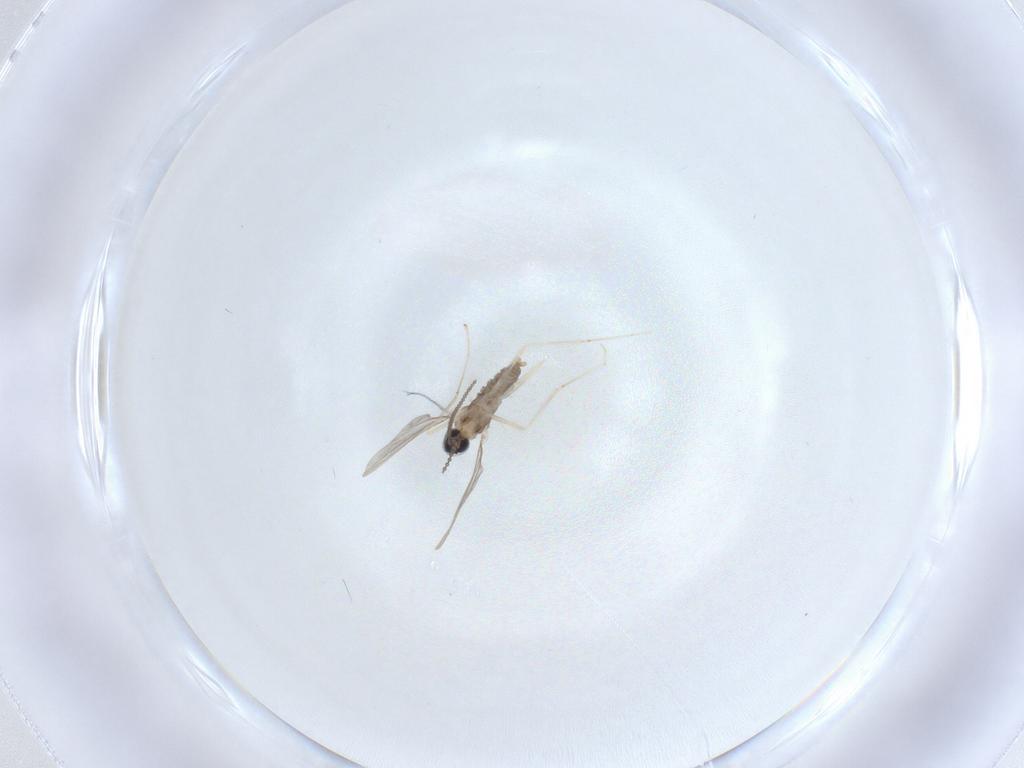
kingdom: Animalia
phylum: Arthropoda
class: Insecta
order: Diptera
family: Cecidomyiidae
